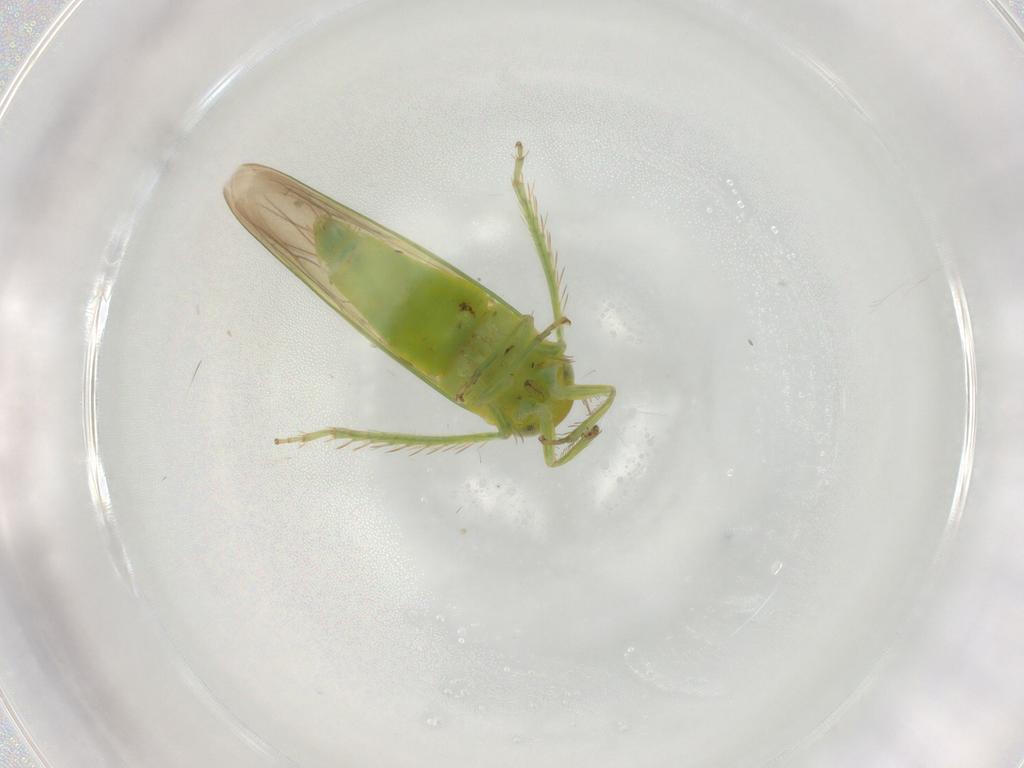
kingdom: Animalia
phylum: Arthropoda
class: Insecta
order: Hemiptera
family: Cicadellidae
